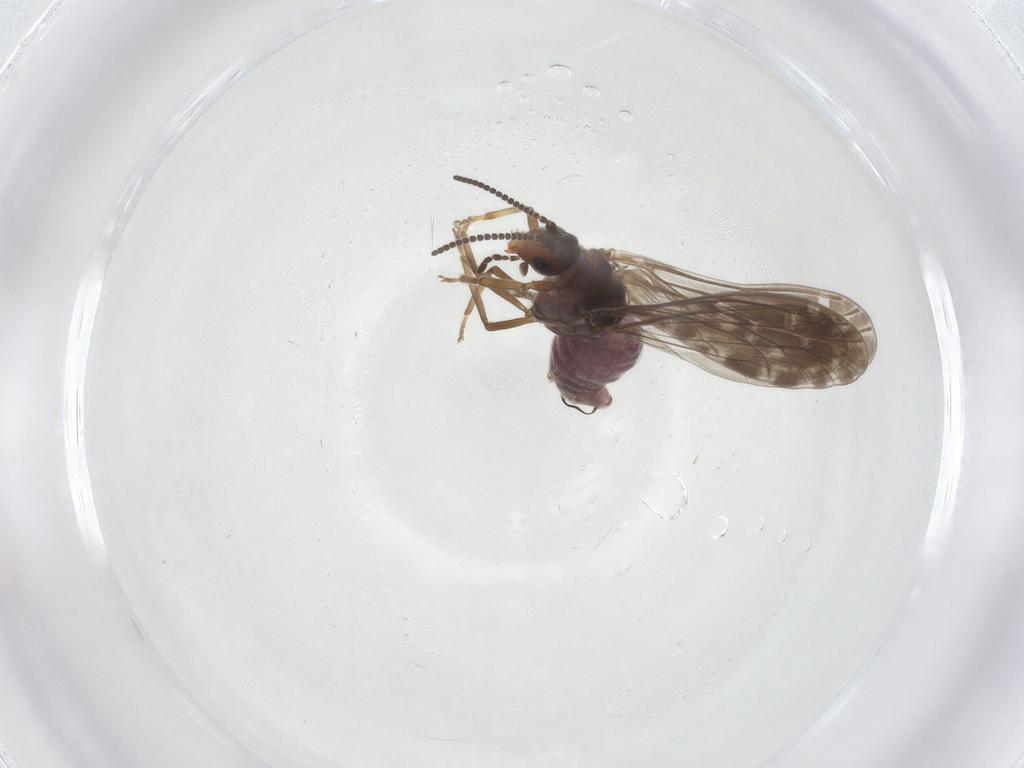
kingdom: Animalia
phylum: Arthropoda
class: Insecta
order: Neuroptera
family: Coniopterygidae
